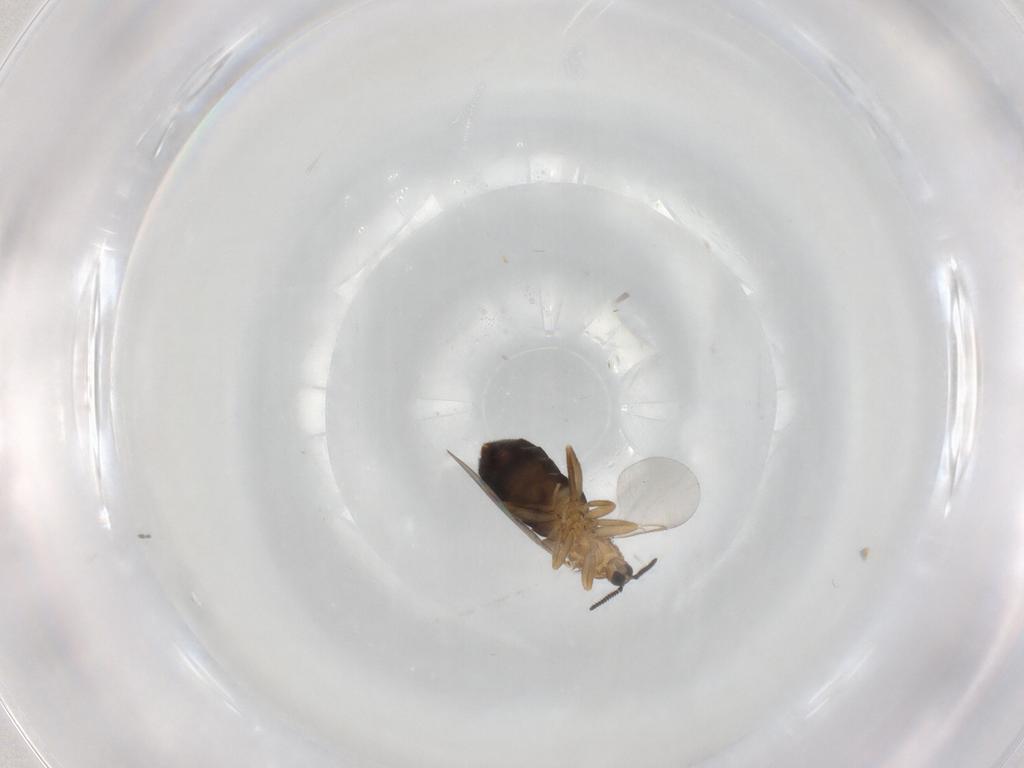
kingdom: Animalia
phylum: Arthropoda
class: Insecta
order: Diptera
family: Scatopsidae
